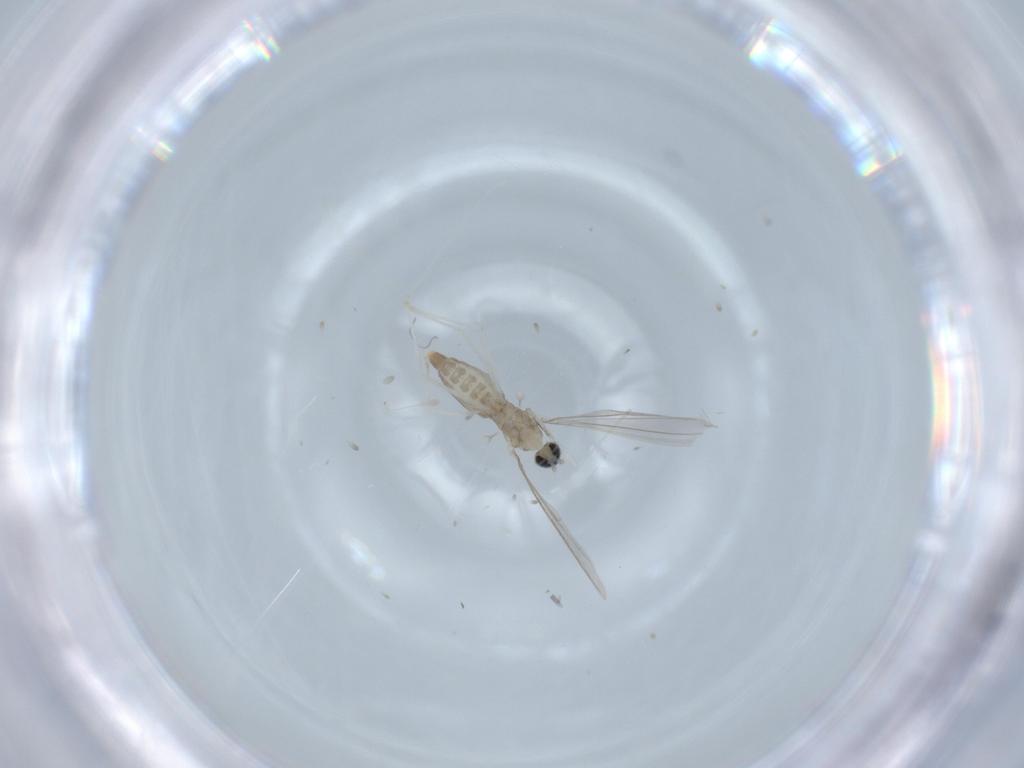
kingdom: Animalia
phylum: Arthropoda
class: Insecta
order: Diptera
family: Cecidomyiidae
